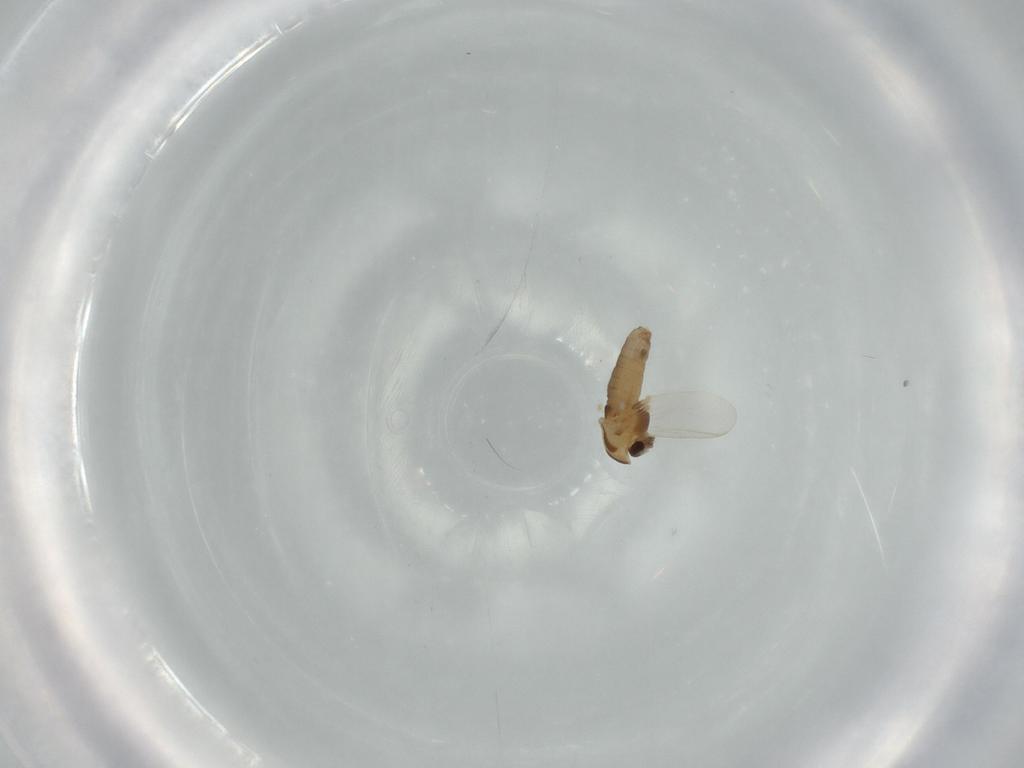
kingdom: Animalia
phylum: Arthropoda
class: Insecta
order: Diptera
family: Chironomidae
